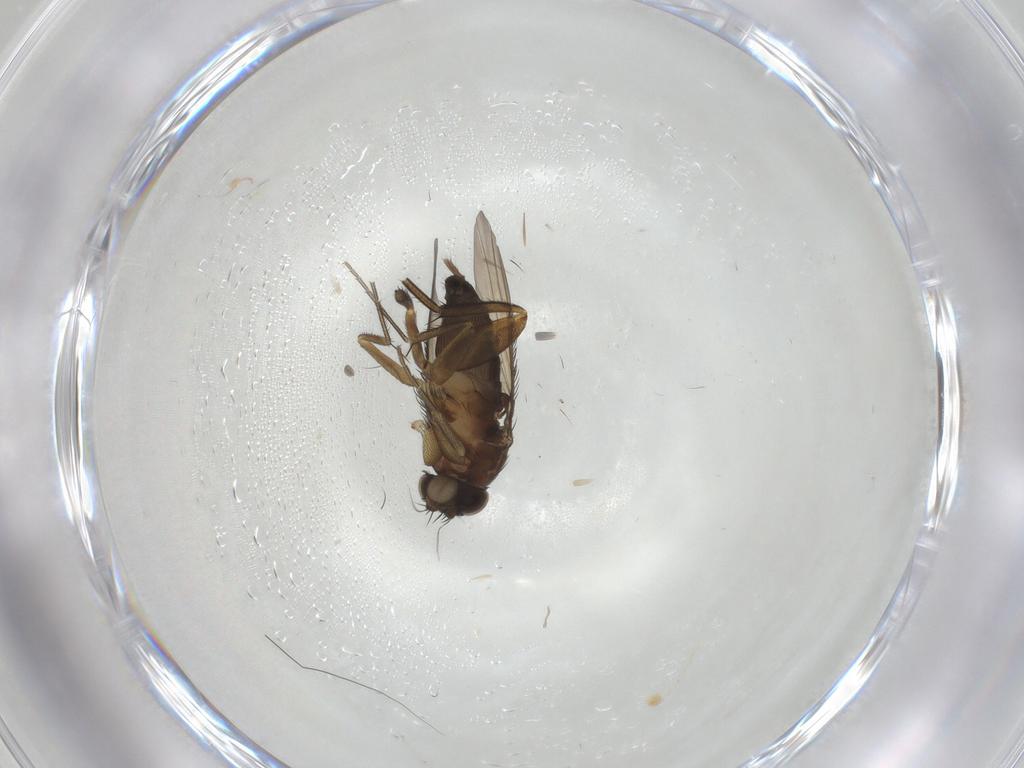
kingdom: Animalia
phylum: Arthropoda
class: Insecta
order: Diptera
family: Phoridae
